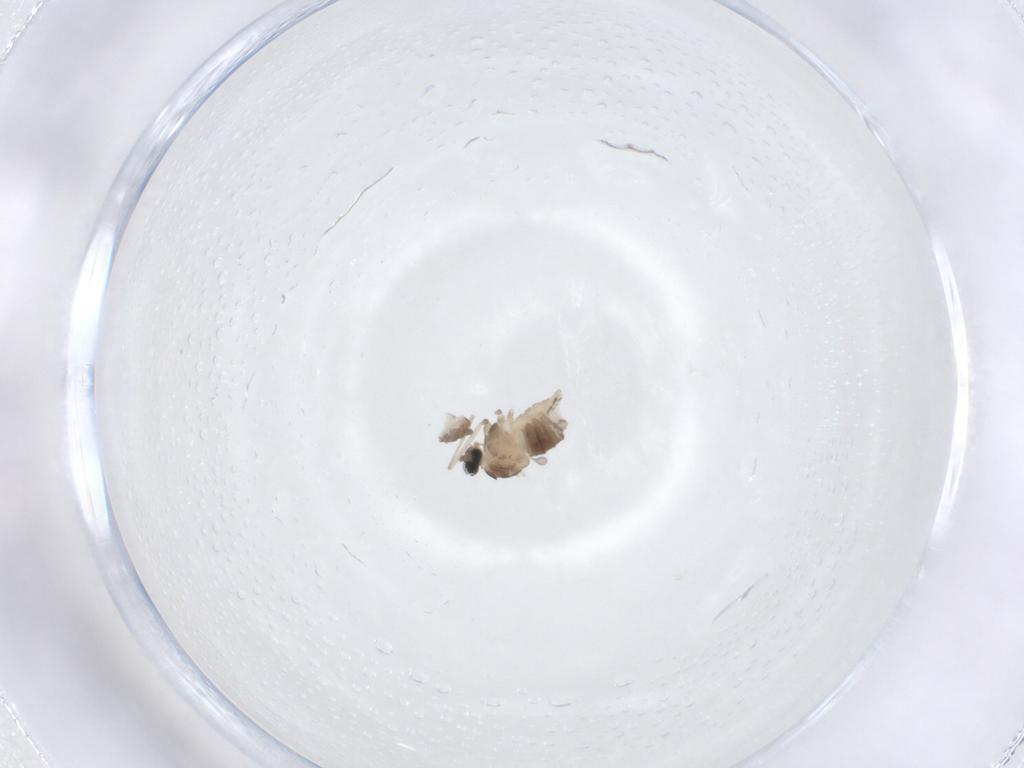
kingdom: Animalia
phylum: Arthropoda
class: Insecta
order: Diptera
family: Cecidomyiidae
